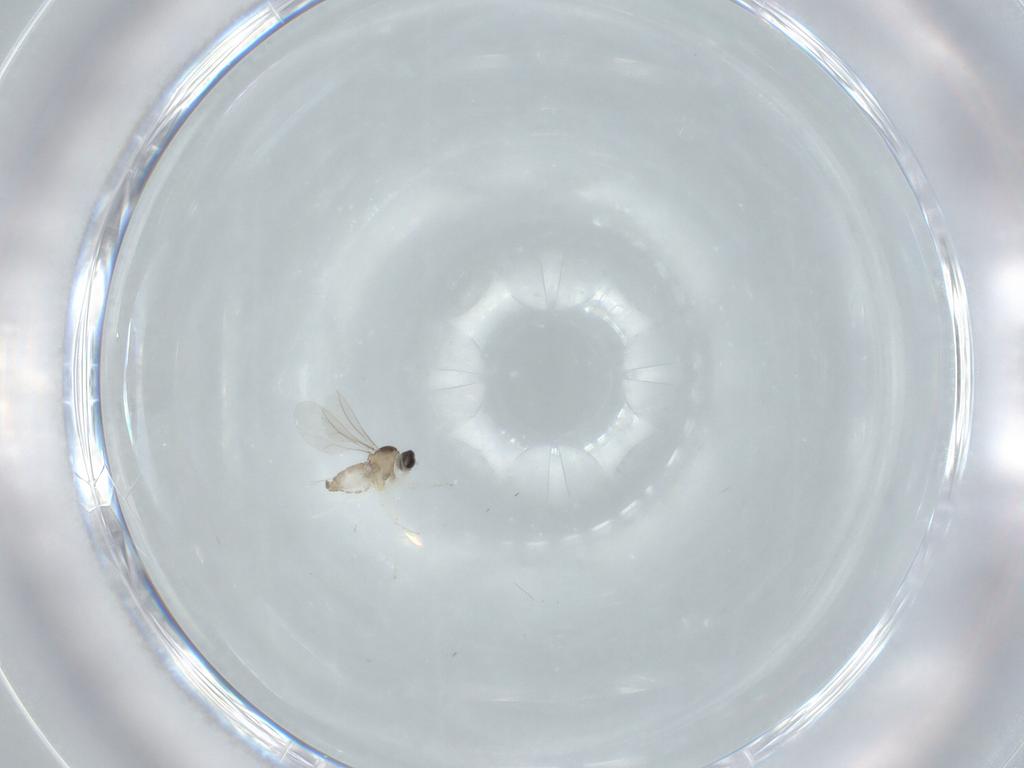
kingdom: Animalia
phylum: Arthropoda
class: Insecta
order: Diptera
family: Cecidomyiidae
